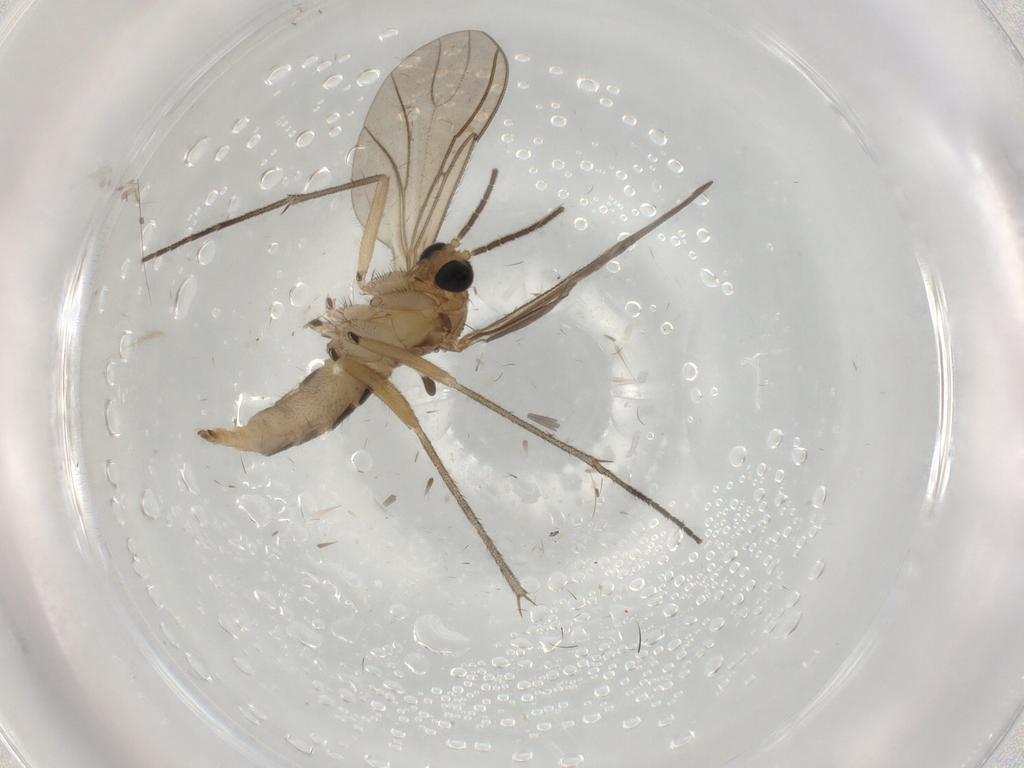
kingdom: Animalia
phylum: Arthropoda
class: Insecta
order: Diptera
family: Sciaridae
